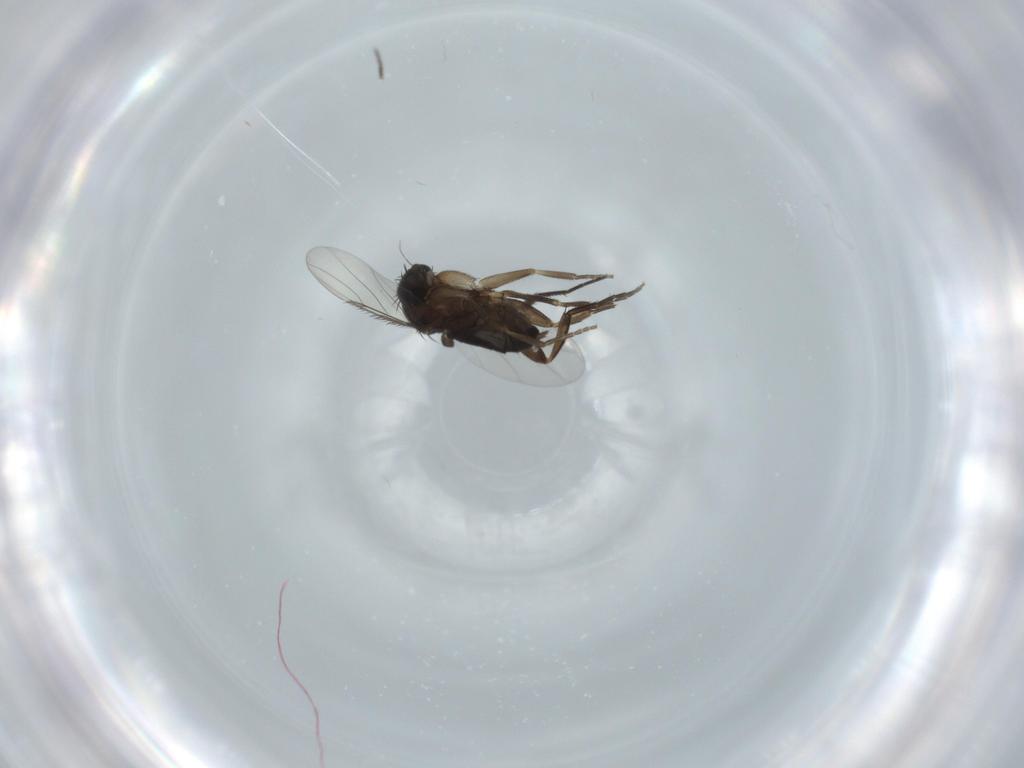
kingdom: Animalia
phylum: Arthropoda
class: Insecta
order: Diptera
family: Phoridae
